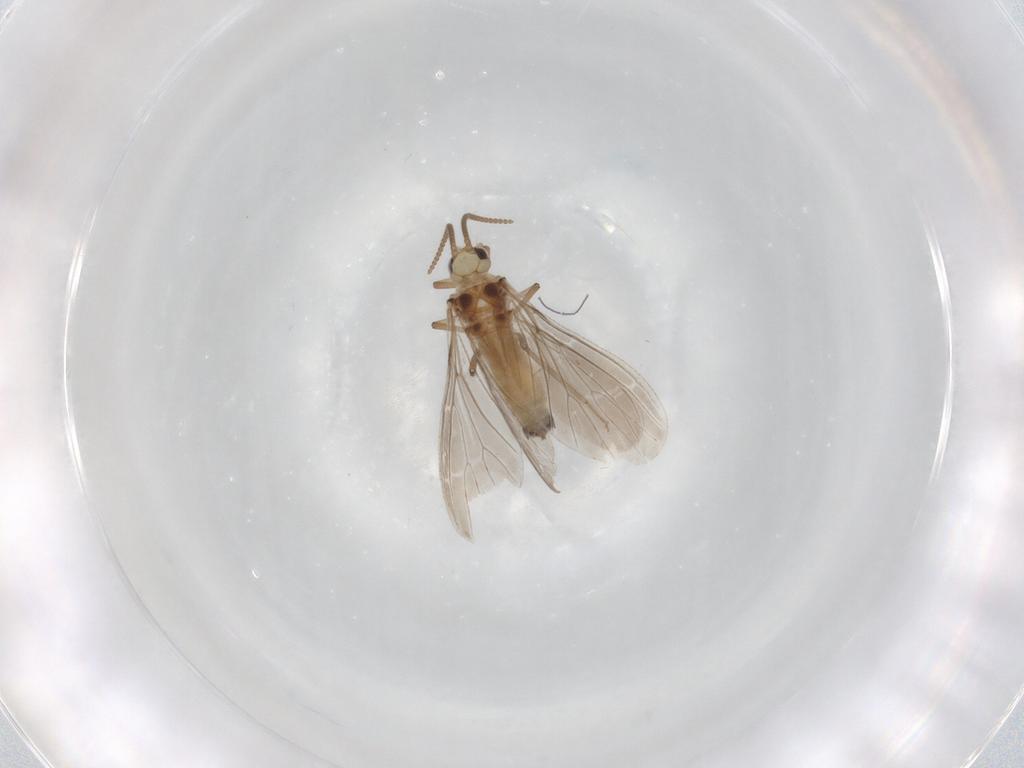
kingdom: Animalia
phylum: Arthropoda
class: Insecta
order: Neuroptera
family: Coniopterygidae
